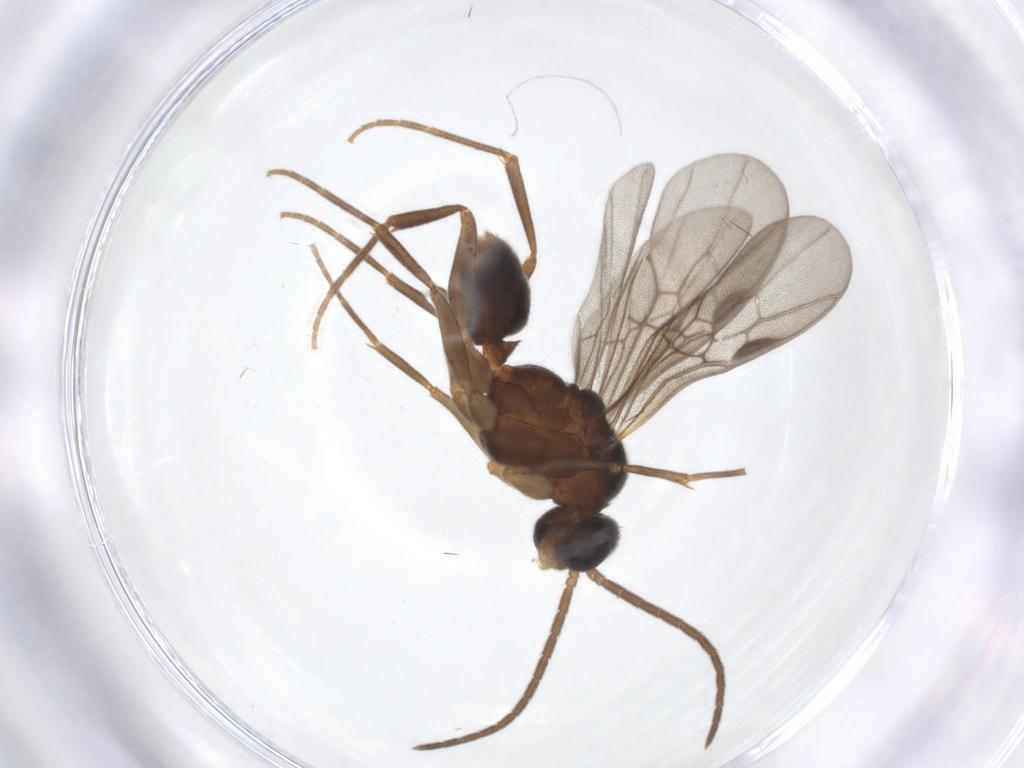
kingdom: Animalia
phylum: Arthropoda
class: Insecta
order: Hymenoptera
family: Formicidae
